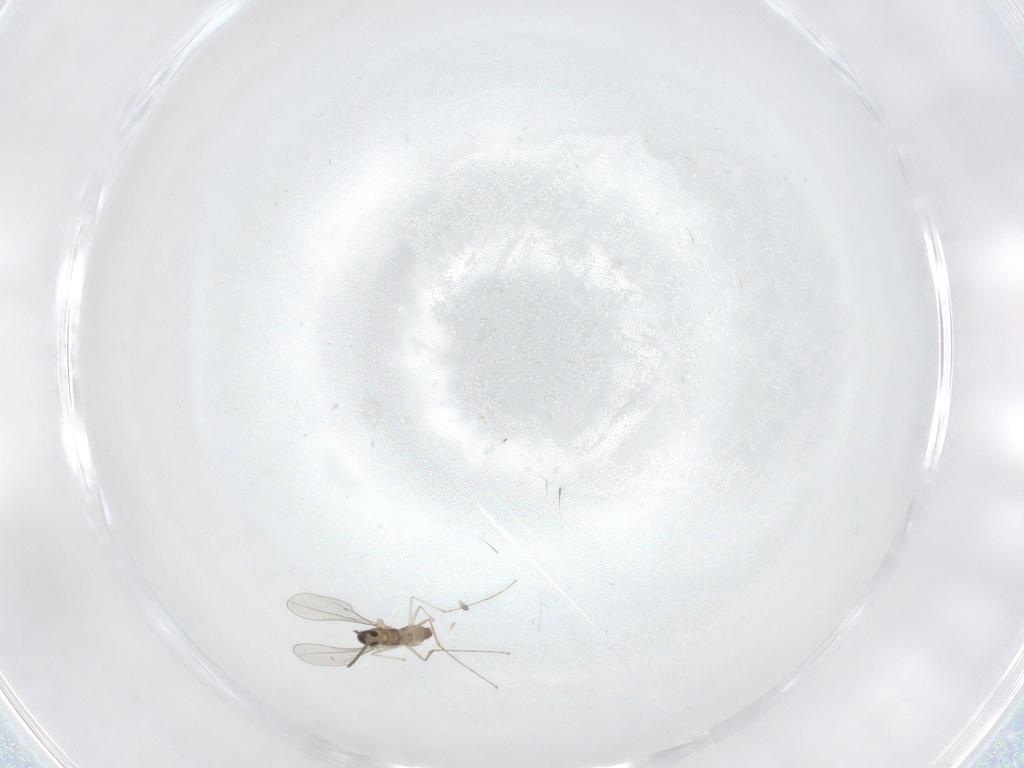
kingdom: Animalia
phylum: Arthropoda
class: Insecta
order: Diptera
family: Cecidomyiidae
